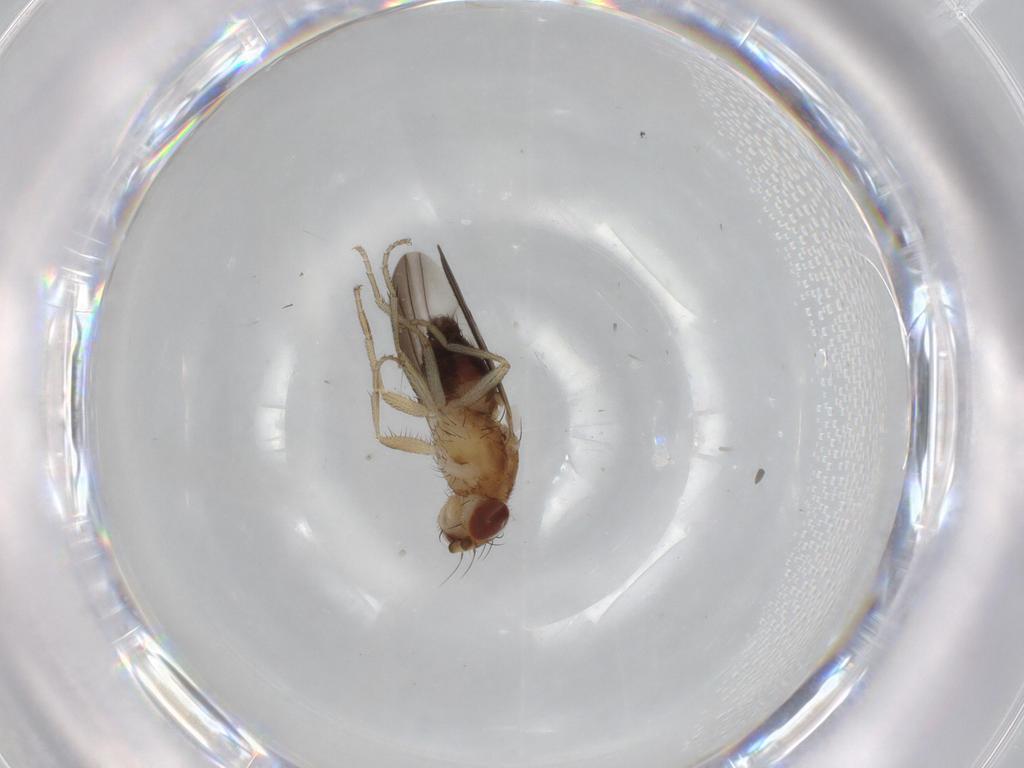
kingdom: Animalia
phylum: Arthropoda
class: Insecta
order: Diptera
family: Heleomyzidae
